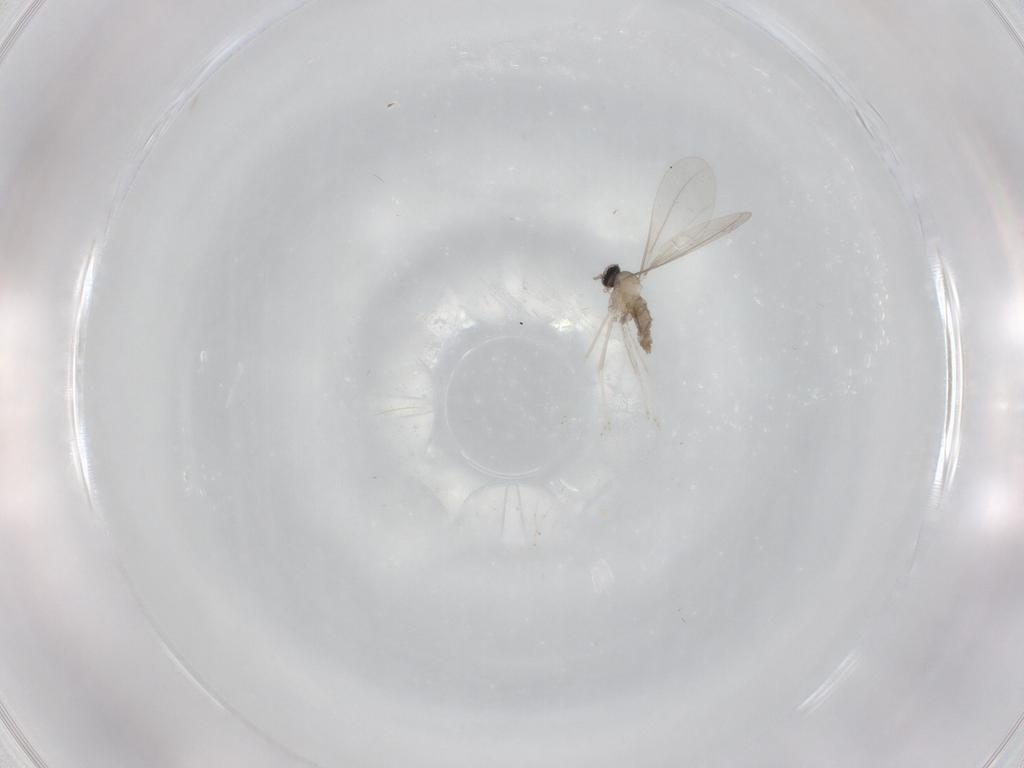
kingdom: Animalia
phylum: Arthropoda
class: Insecta
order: Diptera
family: Cecidomyiidae
